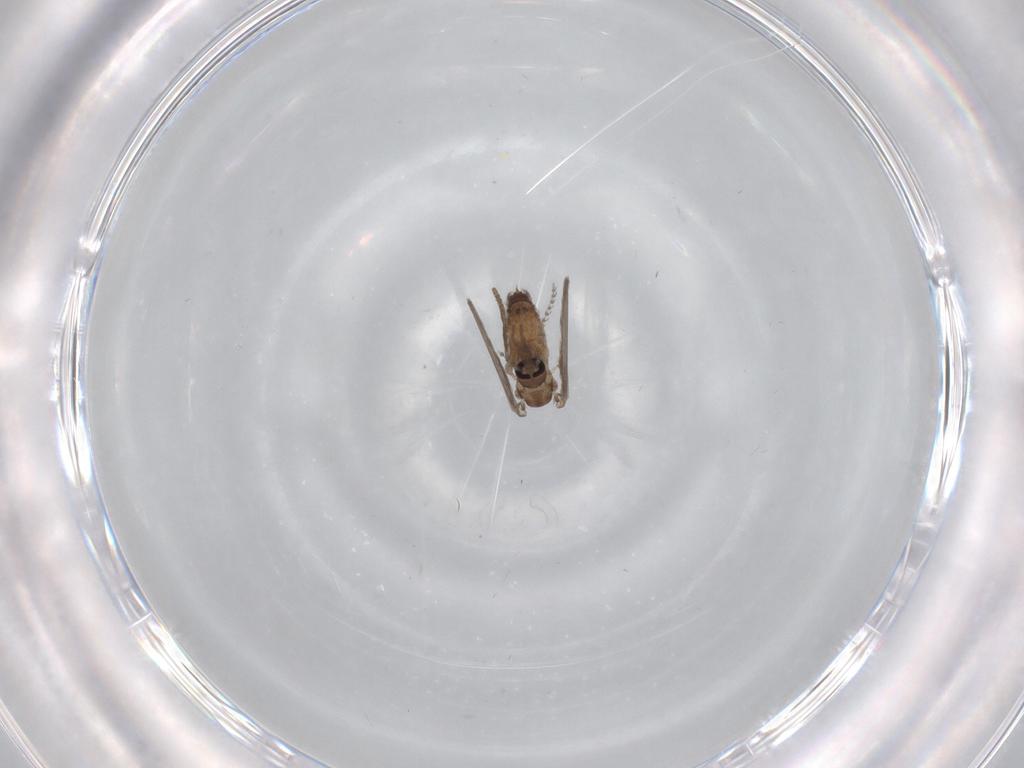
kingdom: Animalia
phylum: Arthropoda
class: Insecta
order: Diptera
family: Psychodidae
